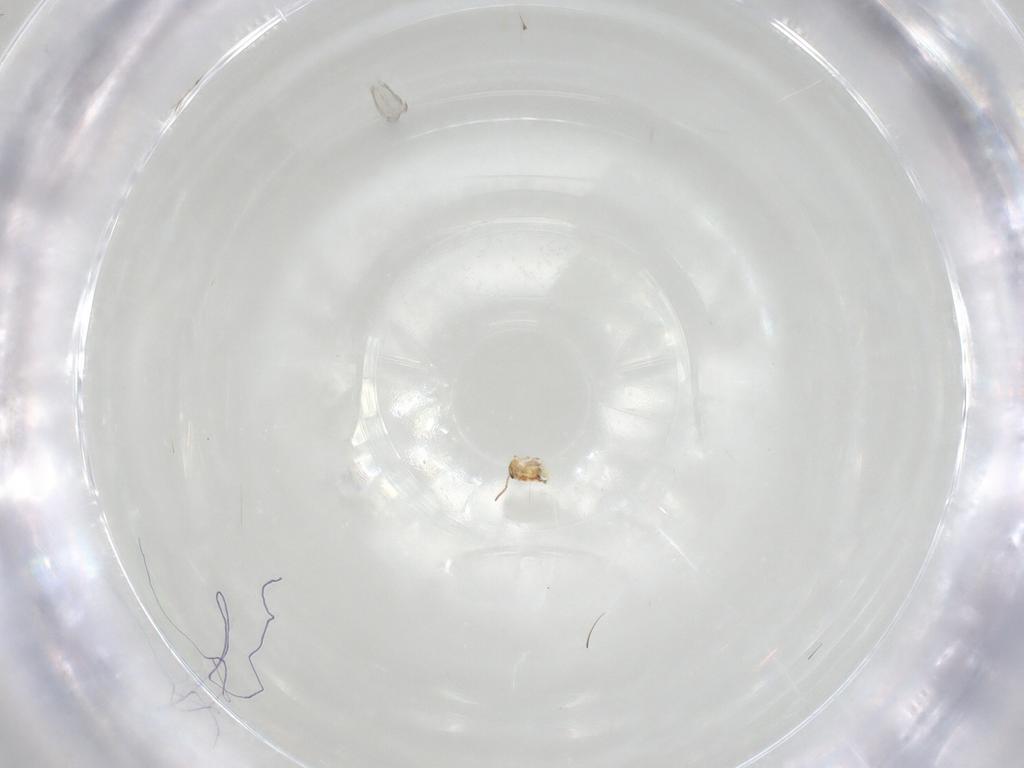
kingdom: Animalia
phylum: Arthropoda
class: Collembola
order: Symphypleona
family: Bourletiellidae
